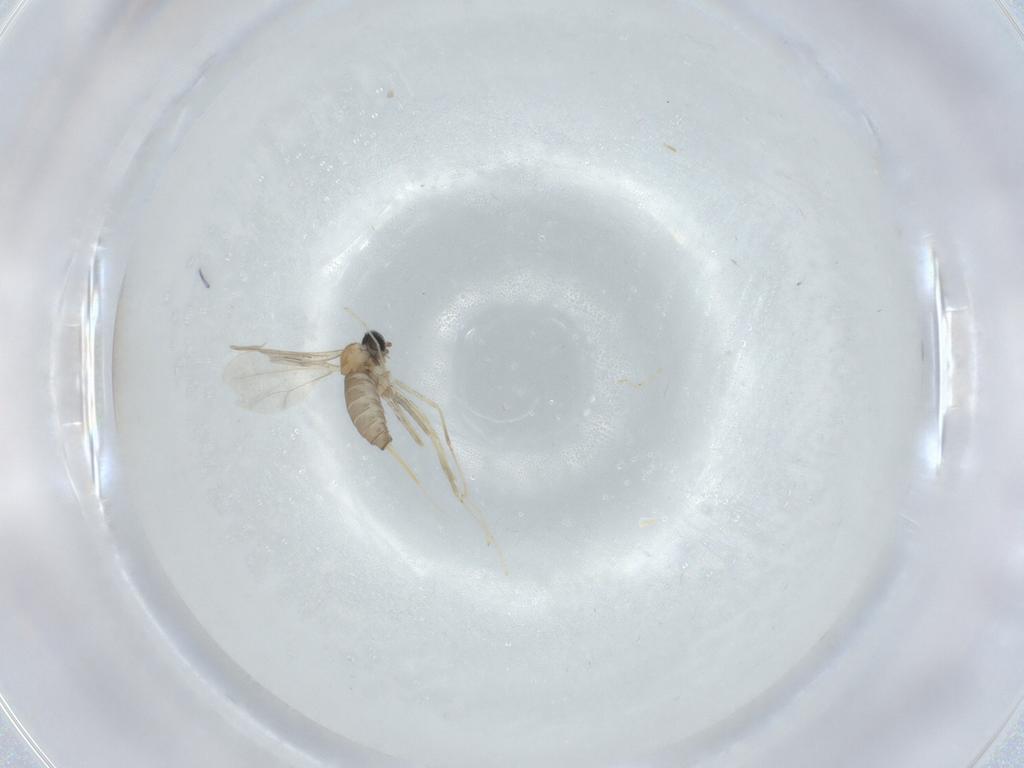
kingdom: Animalia
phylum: Arthropoda
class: Insecta
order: Diptera
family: Cecidomyiidae
